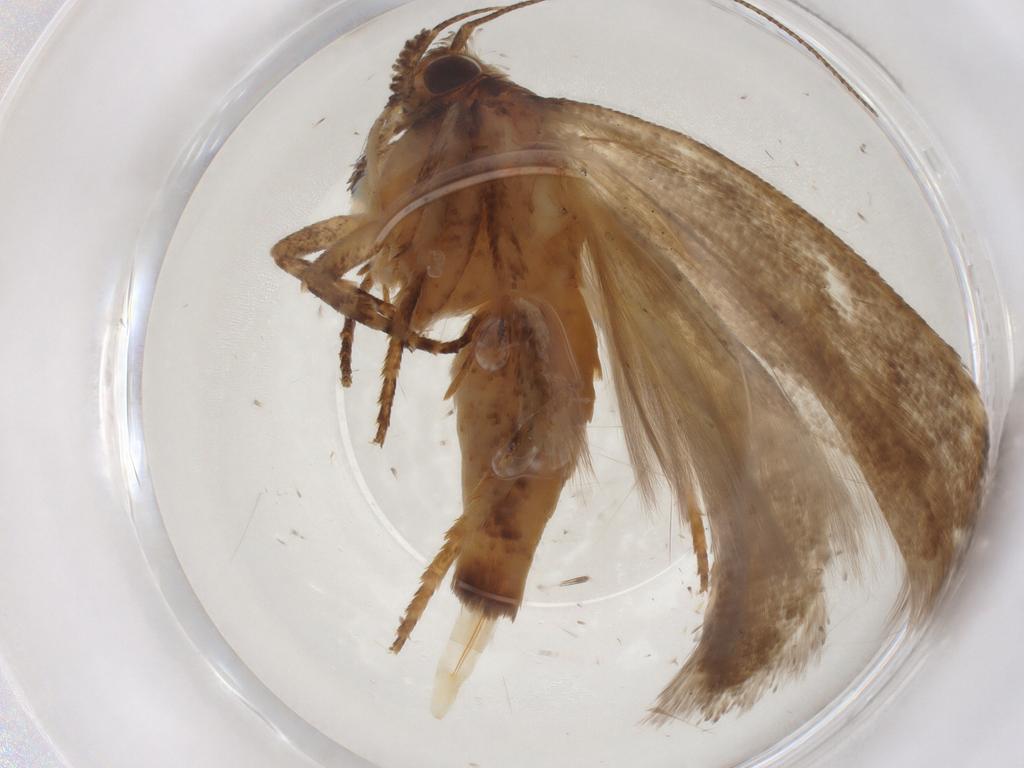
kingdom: Animalia
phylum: Arthropoda
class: Insecta
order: Lepidoptera
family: Gelechiidae
